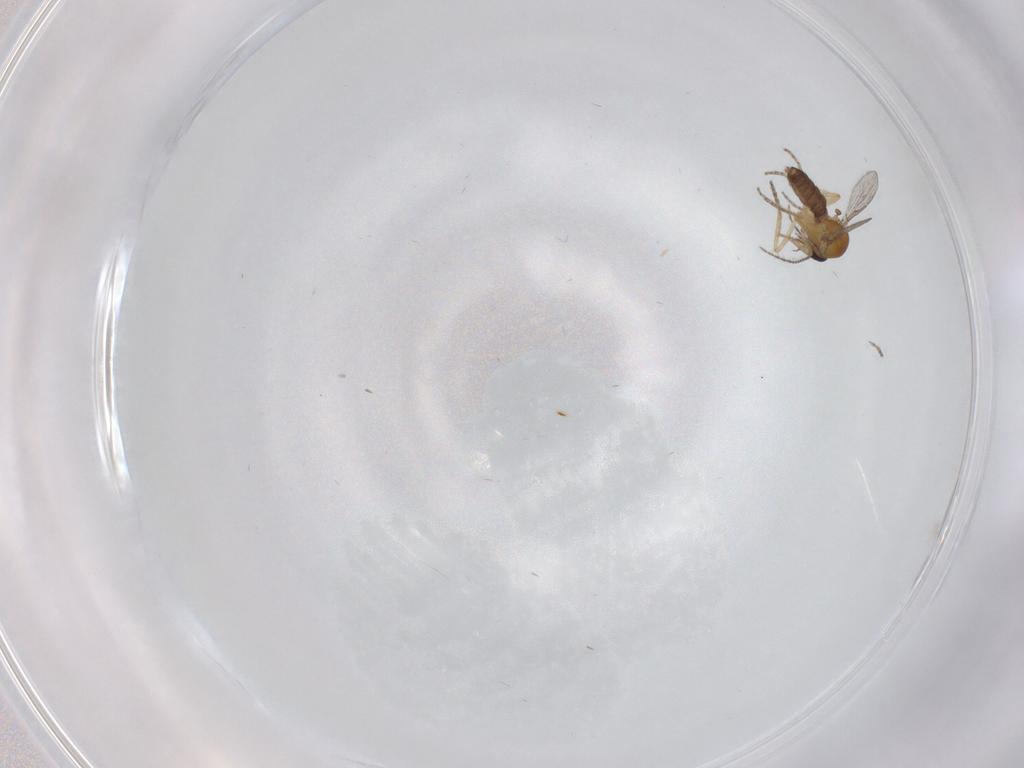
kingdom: Animalia
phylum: Arthropoda
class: Insecta
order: Diptera
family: Ceratopogonidae
